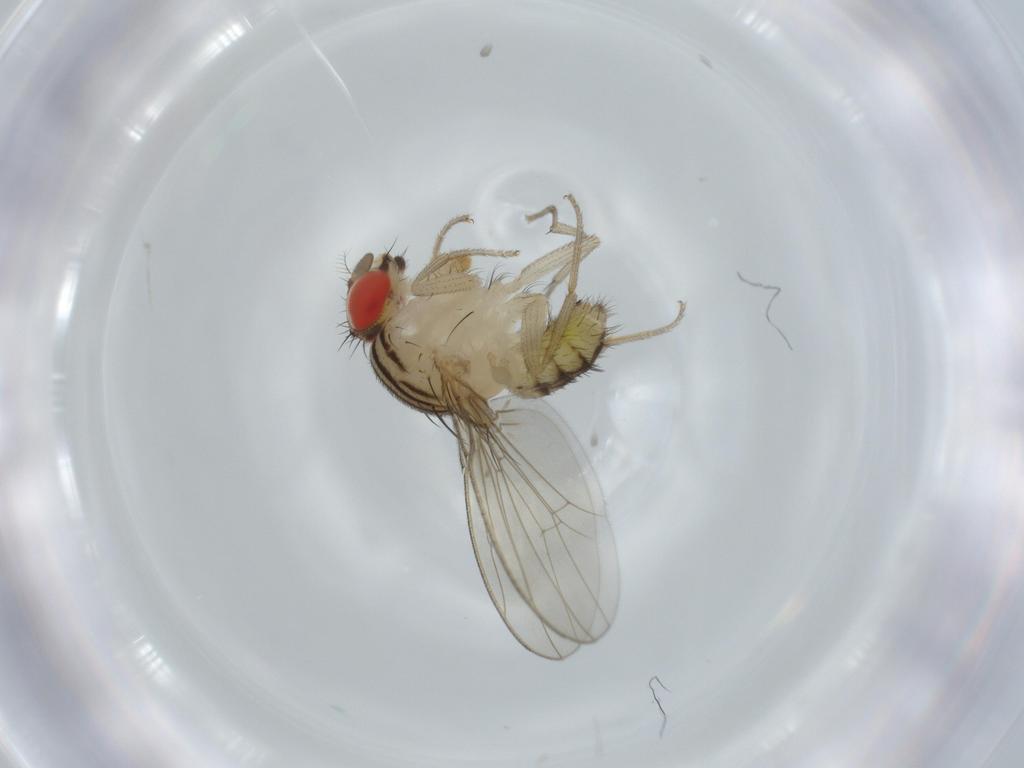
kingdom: Animalia
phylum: Arthropoda
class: Insecta
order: Diptera
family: Drosophilidae
